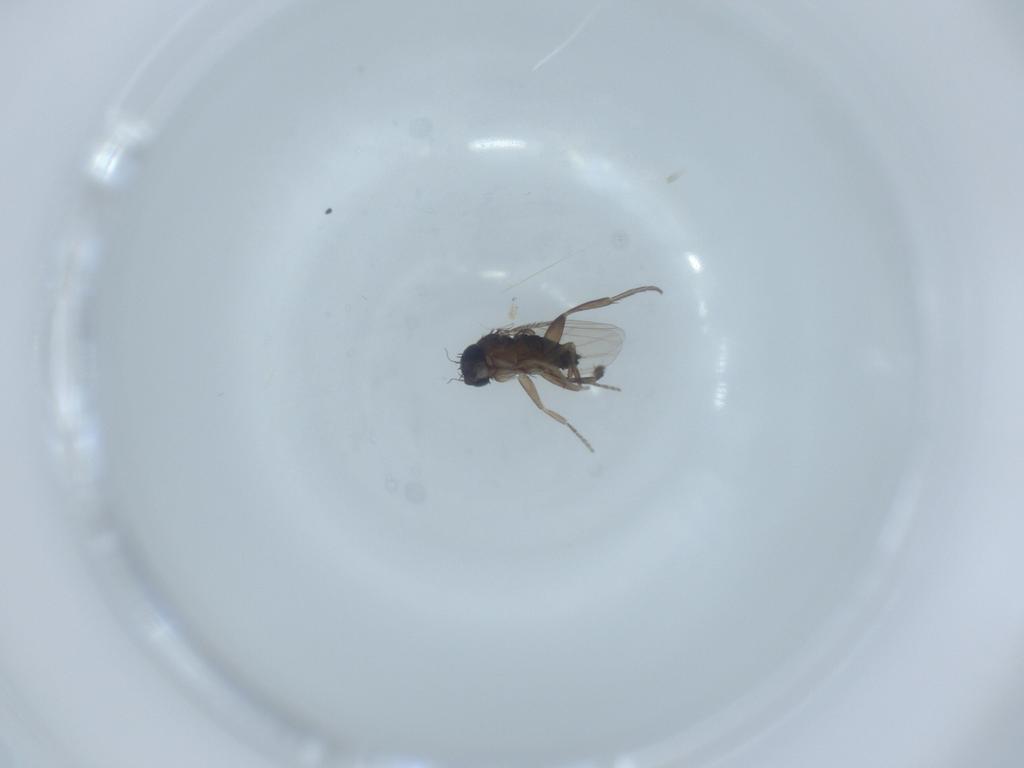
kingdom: Animalia
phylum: Arthropoda
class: Insecta
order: Diptera
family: Phoridae
